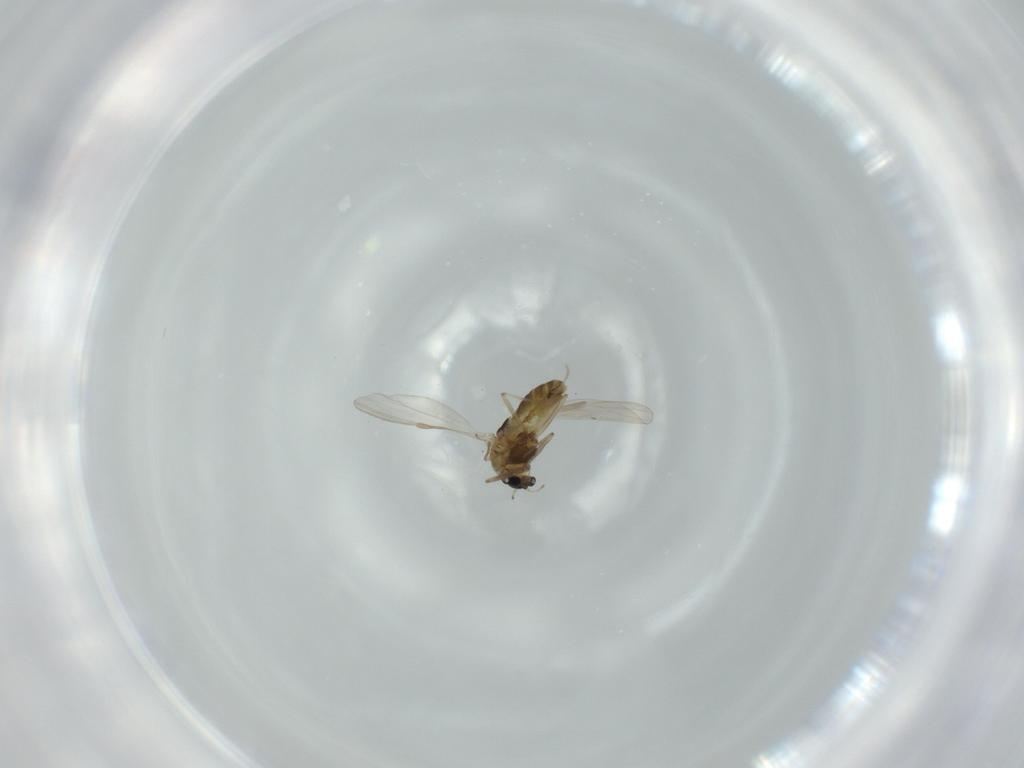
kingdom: Animalia
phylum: Arthropoda
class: Insecta
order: Diptera
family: Chironomidae
